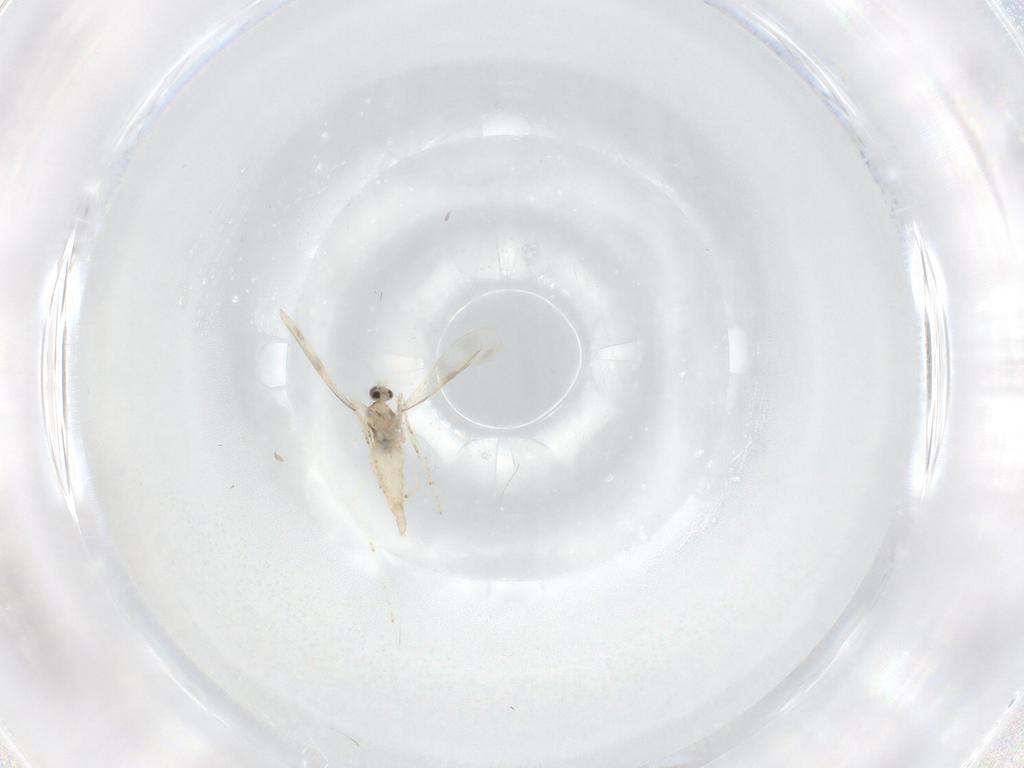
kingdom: Animalia
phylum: Arthropoda
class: Insecta
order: Diptera
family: Cecidomyiidae
